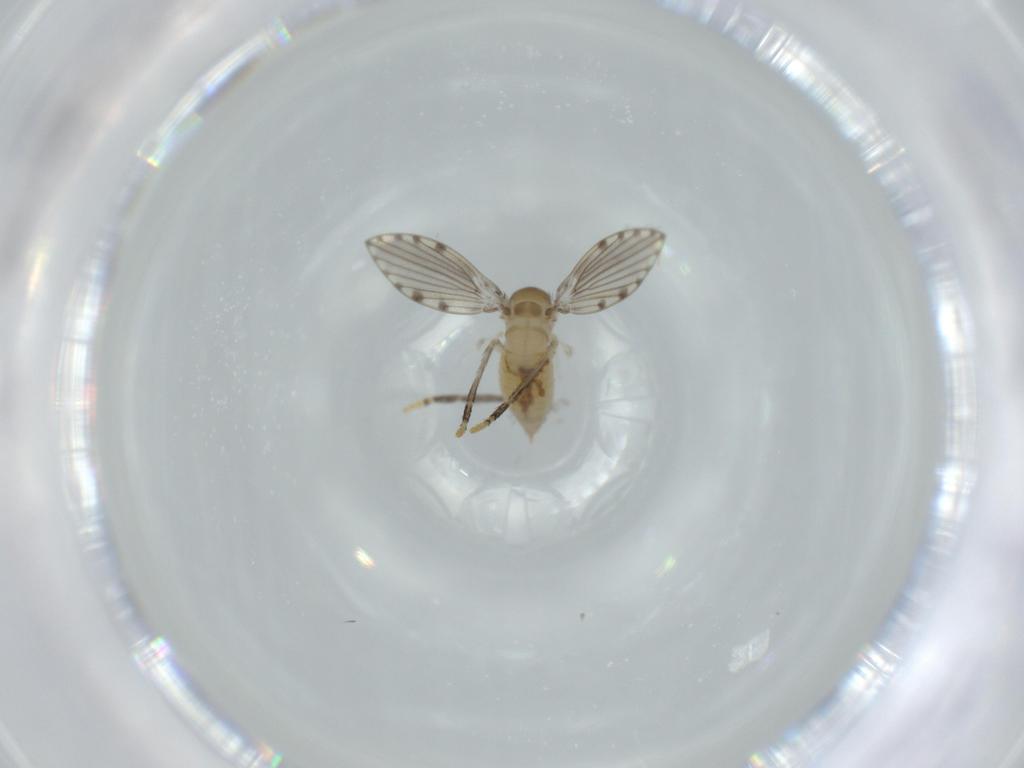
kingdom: Animalia
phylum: Arthropoda
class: Insecta
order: Diptera
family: Psychodidae
